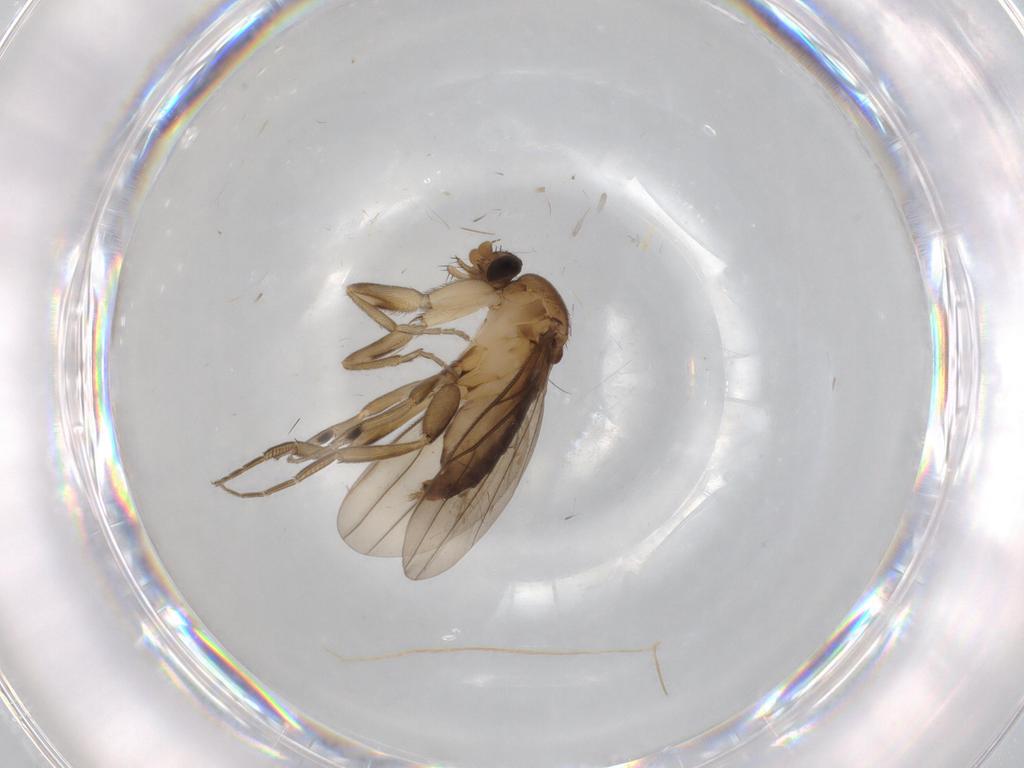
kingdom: Animalia
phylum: Arthropoda
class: Insecta
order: Diptera
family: Phoridae
